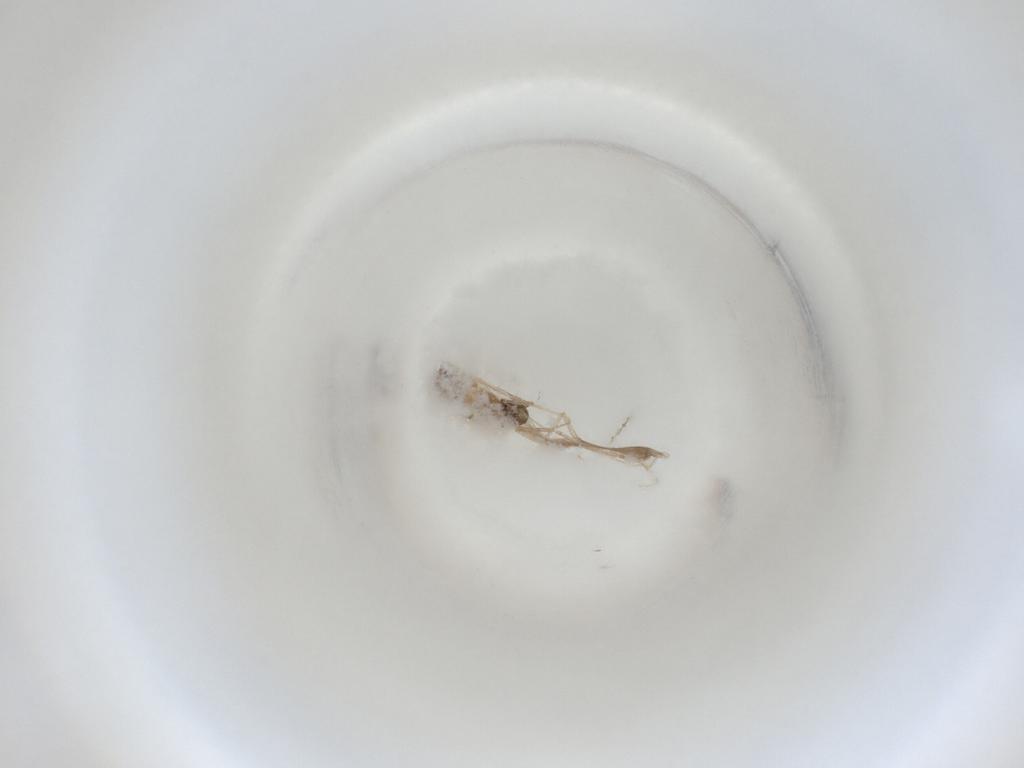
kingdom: Animalia
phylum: Arthropoda
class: Insecta
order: Diptera
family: Cecidomyiidae
